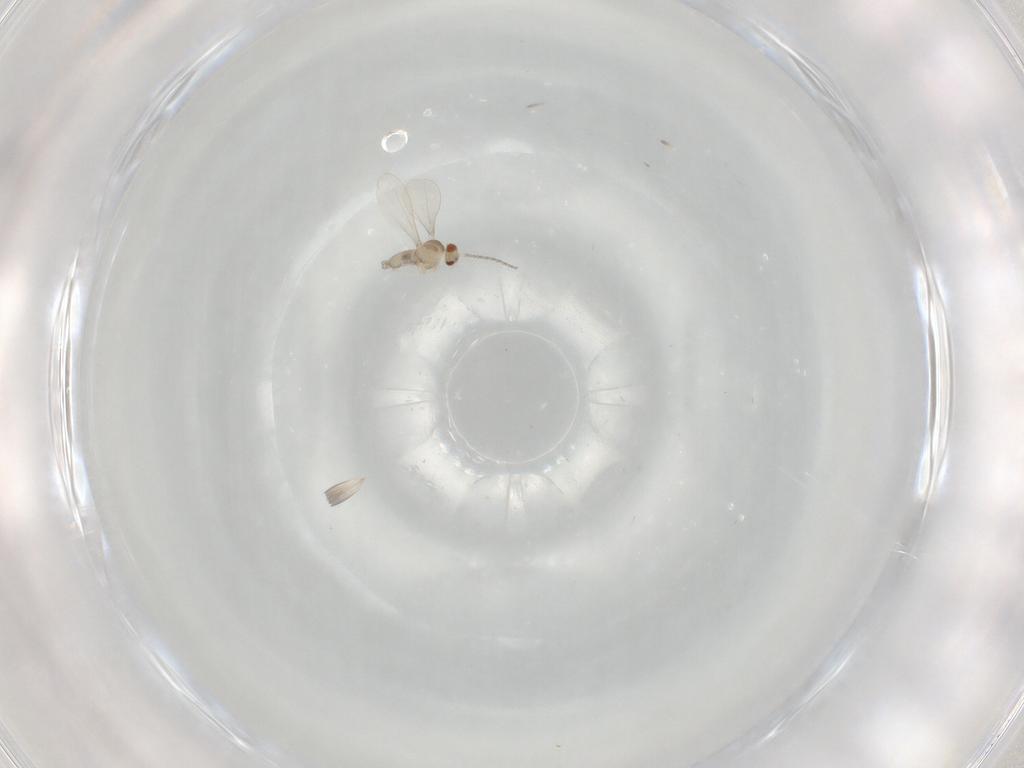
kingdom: Animalia
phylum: Arthropoda
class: Insecta
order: Diptera
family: Cecidomyiidae
